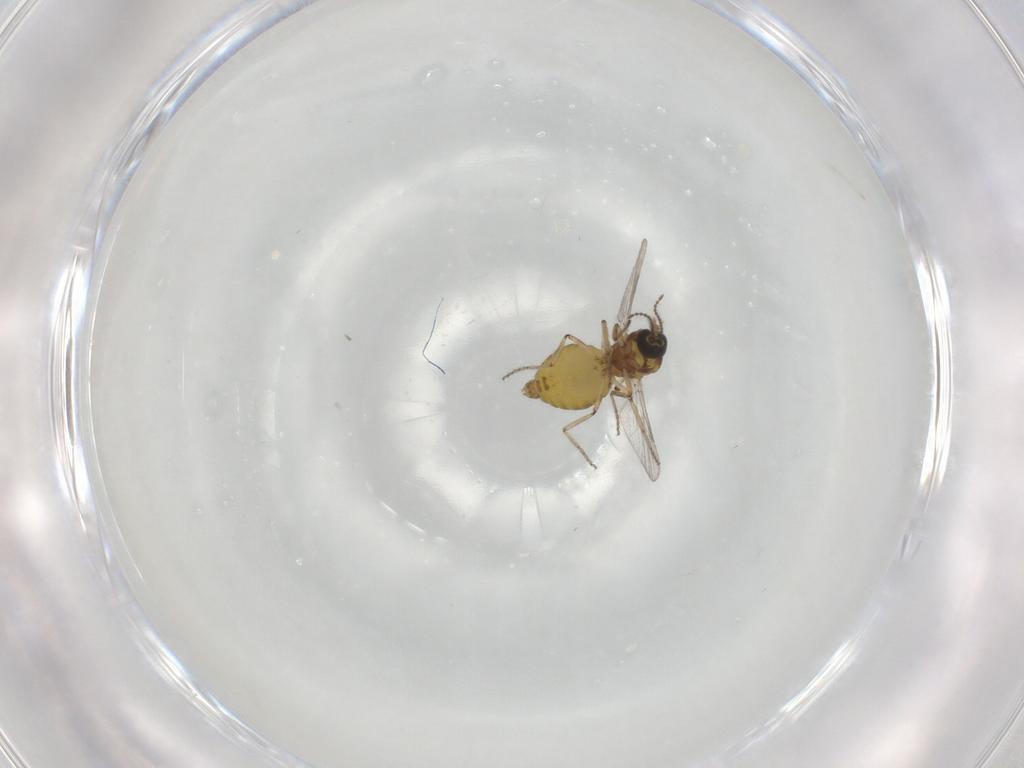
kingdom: Animalia
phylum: Arthropoda
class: Insecta
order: Diptera
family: Ceratopogonidae
